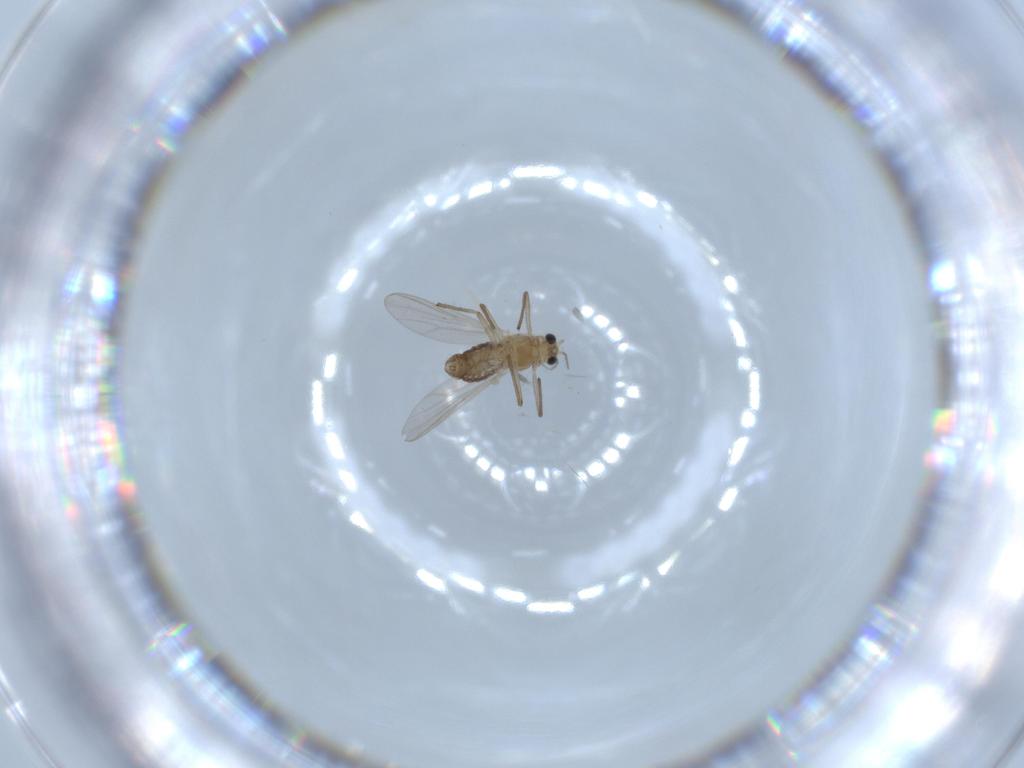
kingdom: Animalia
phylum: Arthropoda
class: Insecta
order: Diptera
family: Chironomidae
